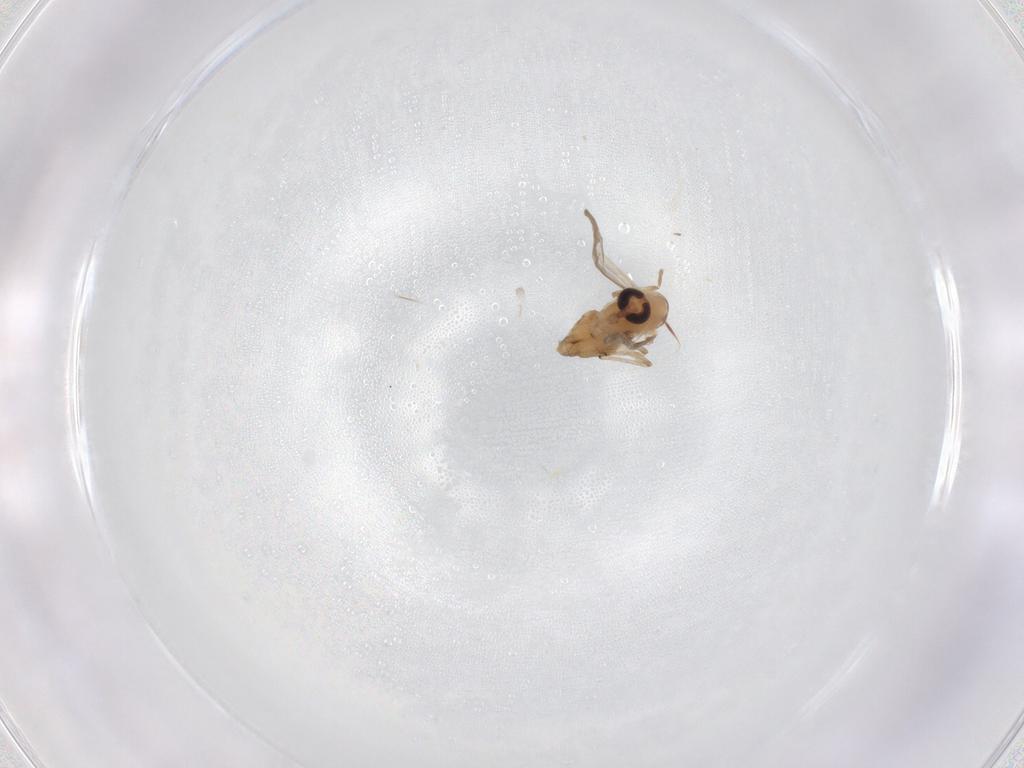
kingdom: Animalia
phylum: Arthropoda
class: Insecta
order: Diptera
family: Chironomidae
